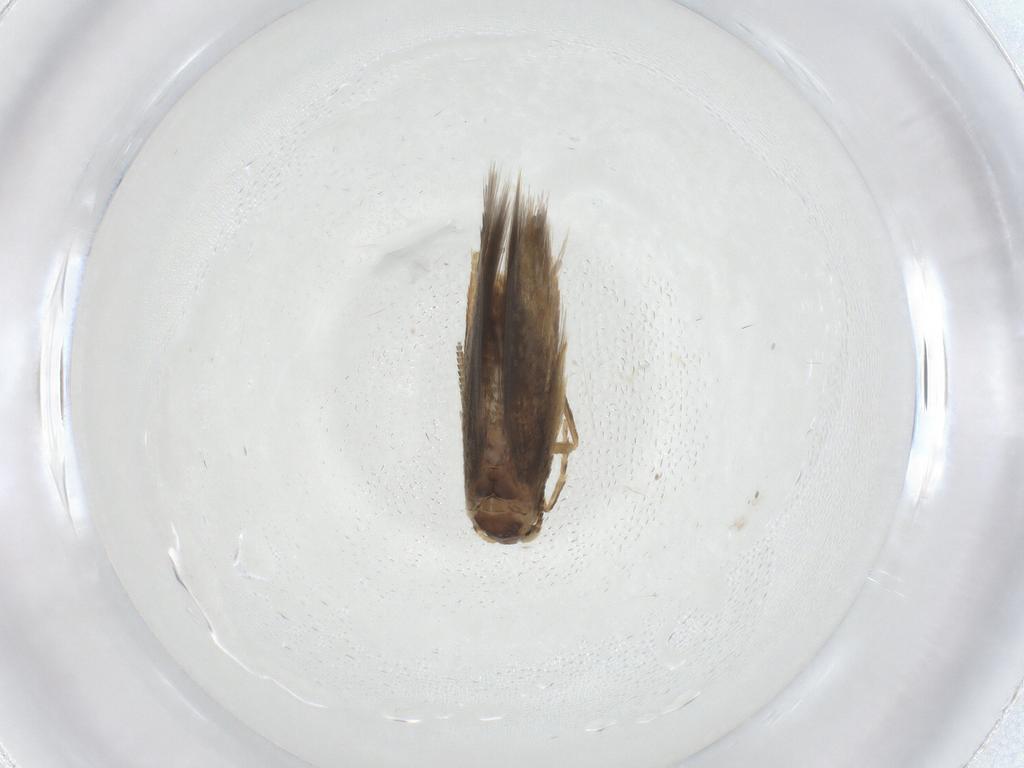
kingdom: Animalia
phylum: Arthropoda
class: Insecta
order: Lepidoptera
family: Nepticulidae
